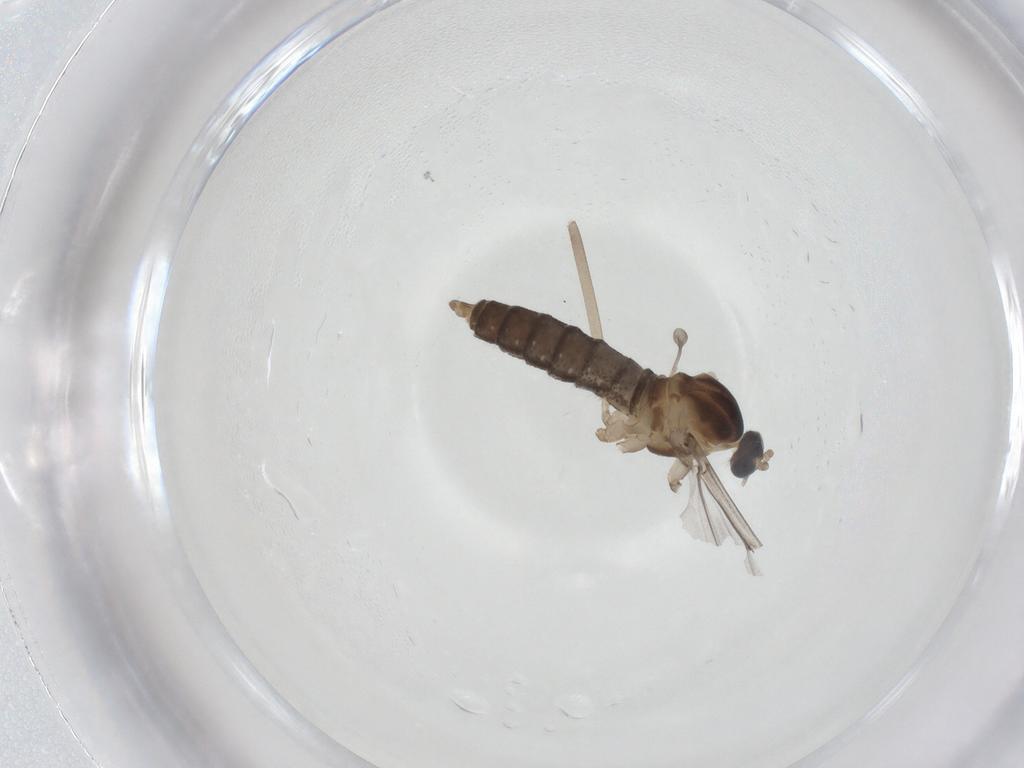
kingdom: Animalia
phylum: Arthropoda
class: Insecta
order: Diptera
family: Cecidomyiidae
